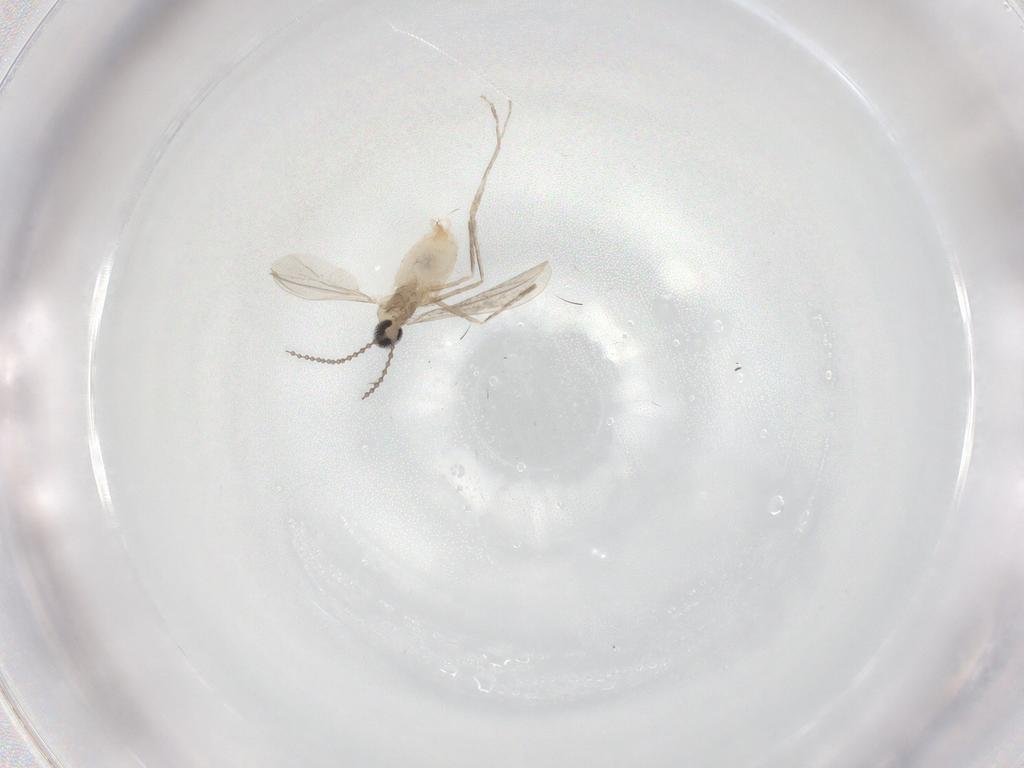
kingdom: Animalia
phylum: Arthropoda
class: Insecta
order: Diptera
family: Cecidomyiidae
